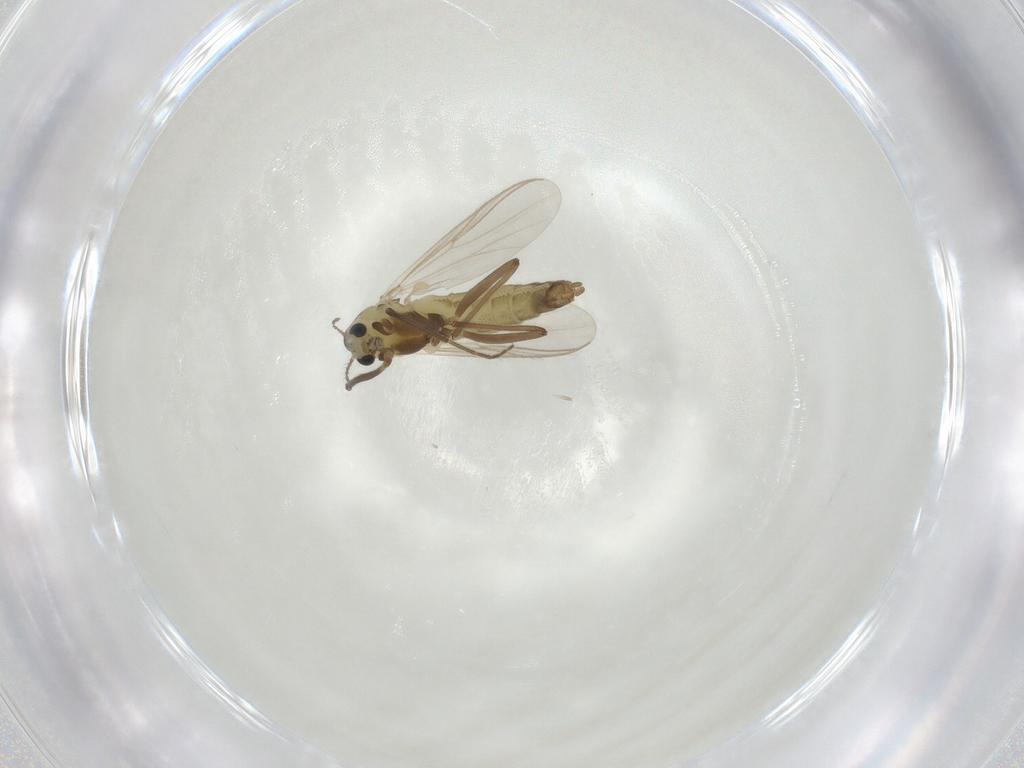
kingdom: Animalia
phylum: Arthropoda
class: Insecta
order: Diptera
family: Chironomidae
